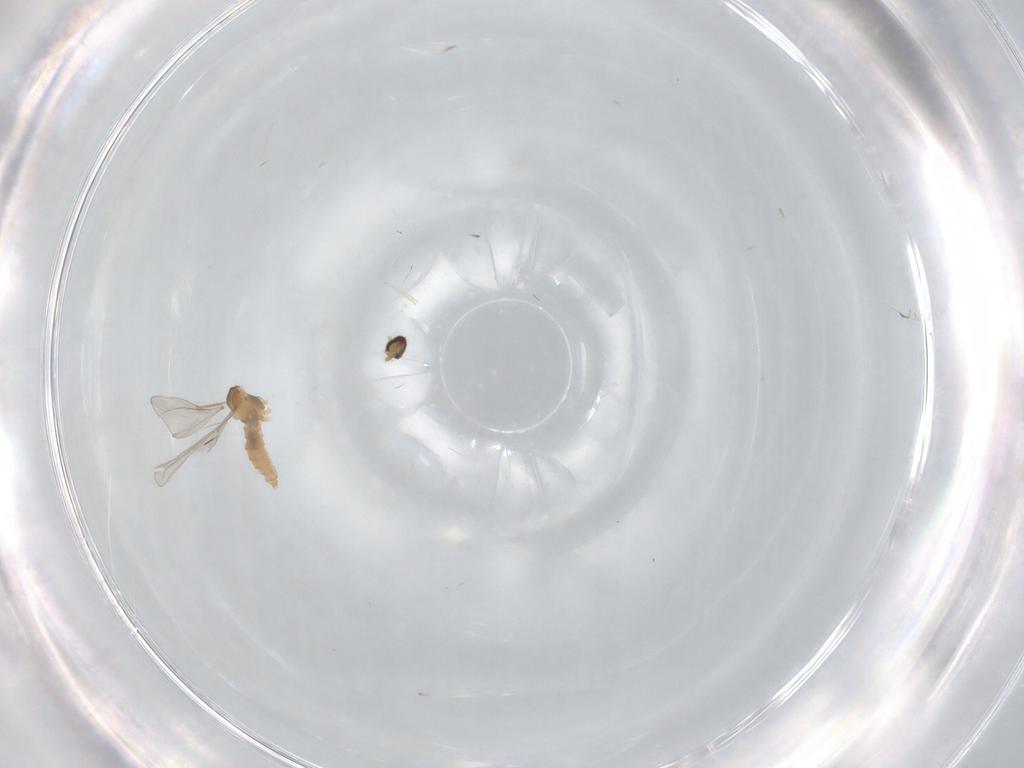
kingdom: Animalia
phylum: Arthropoda
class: Insecta
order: Diptera
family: Cecidomyiidae
